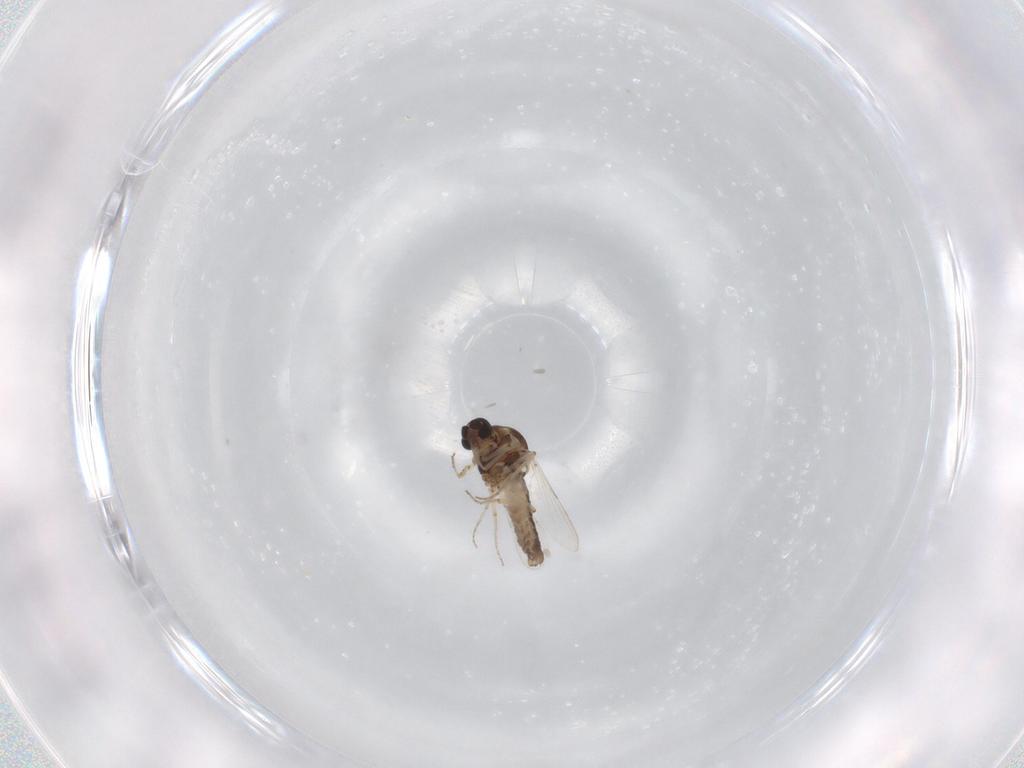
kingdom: Animalia
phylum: Arthropoda
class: Insecta
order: Diptera
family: Ceratopogonidae
